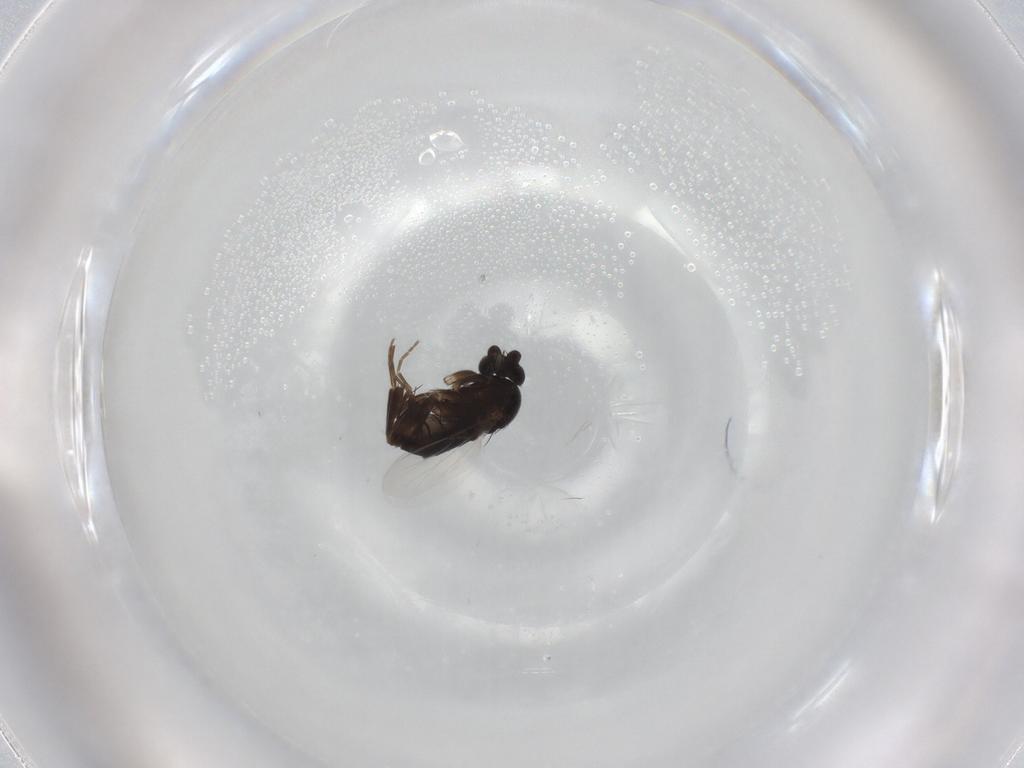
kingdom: Animalia
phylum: Arthropoda
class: Insecta
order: Diptera
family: Phoridae
